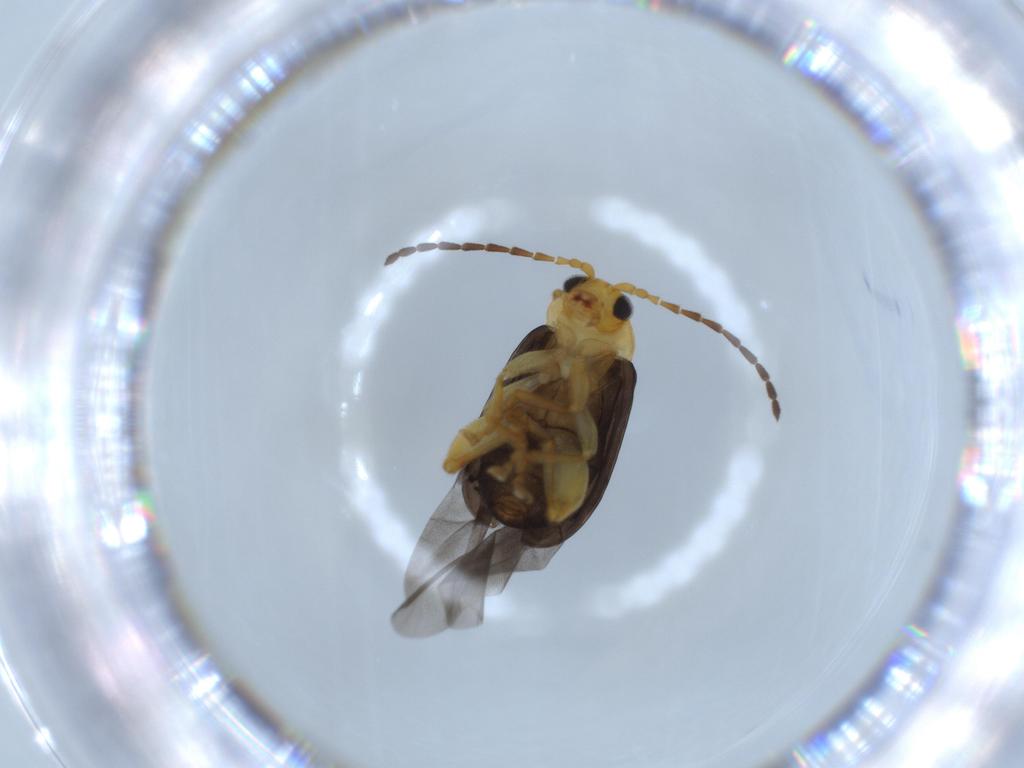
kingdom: Animalia
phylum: Arthropoda
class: Insecta
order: Coleoptera
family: Chrysomelidae
